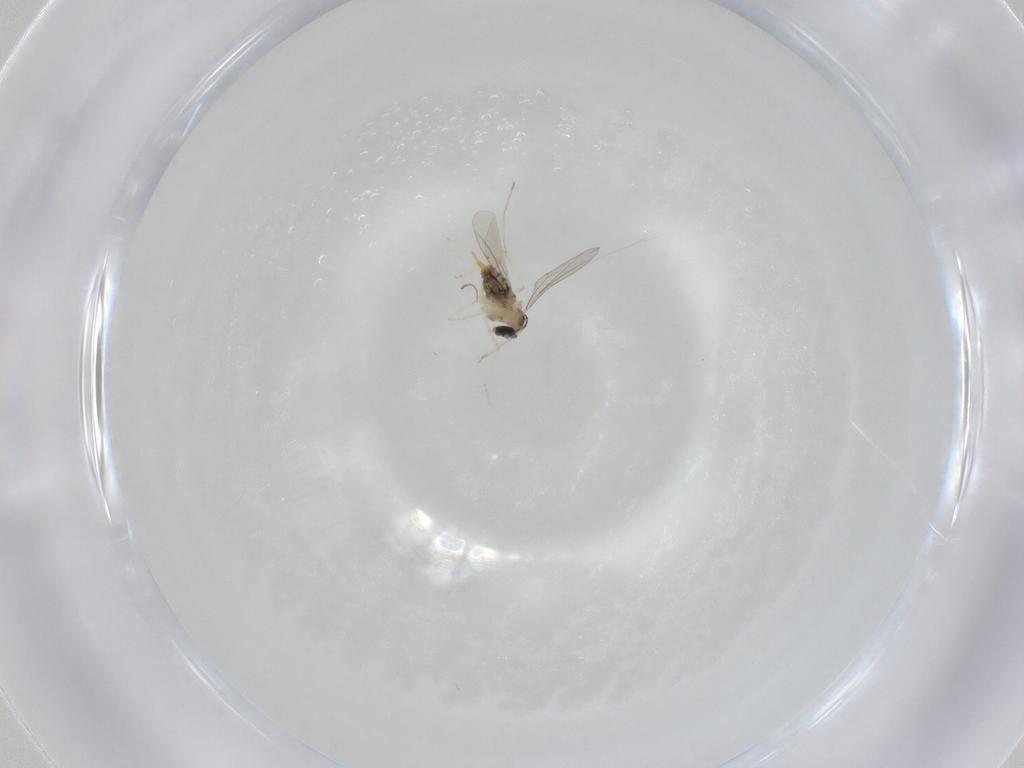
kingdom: Animalia
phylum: Arthropoda
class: Insecta
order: Diptera
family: Cecidomyiidae
